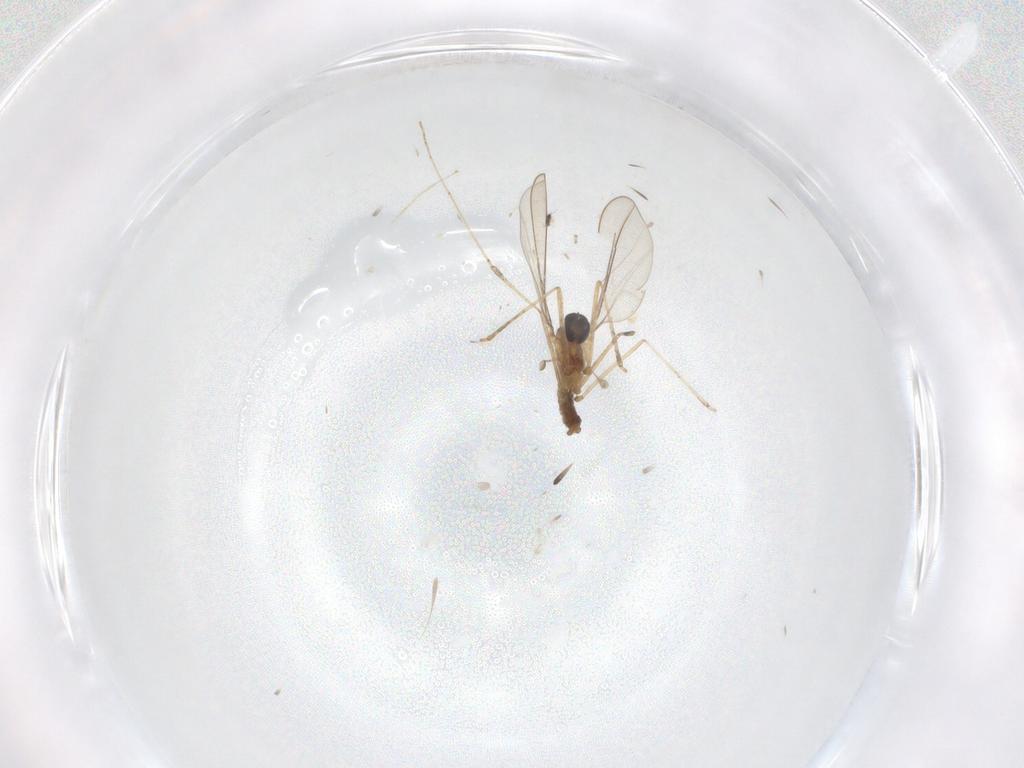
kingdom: Animalia
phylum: Arthropoda
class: Insecta
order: Diptera
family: Cecidomyiidae
